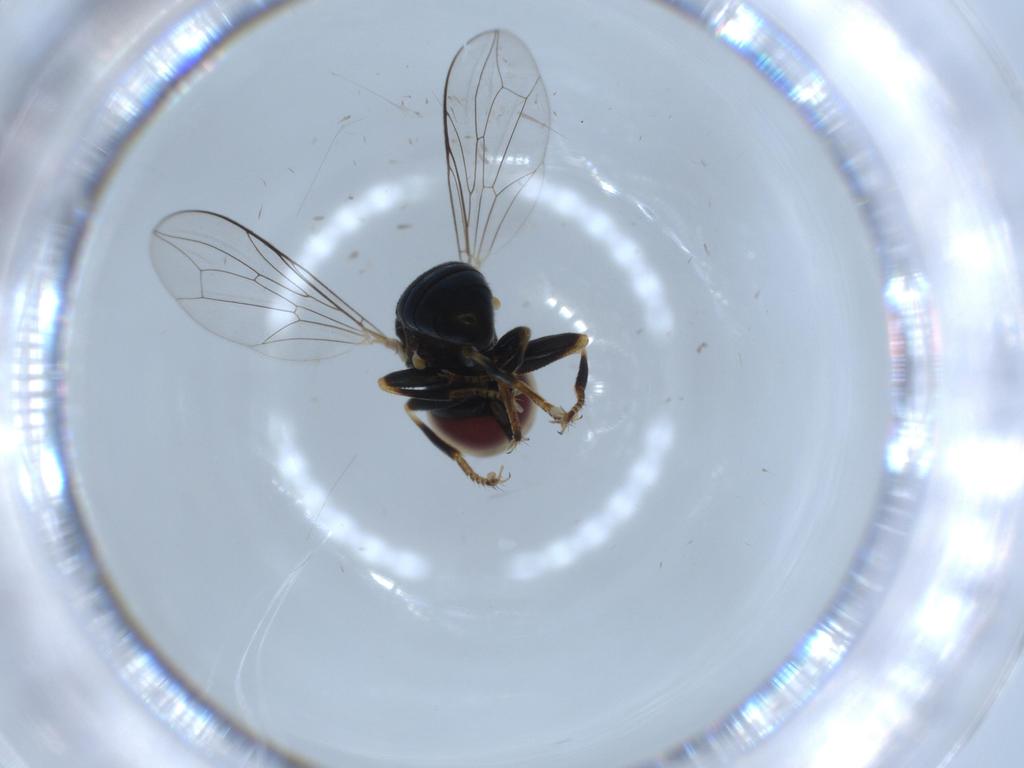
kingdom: Animalia
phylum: Arthropoda
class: Insecta
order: Diptera
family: Pipunculidae
